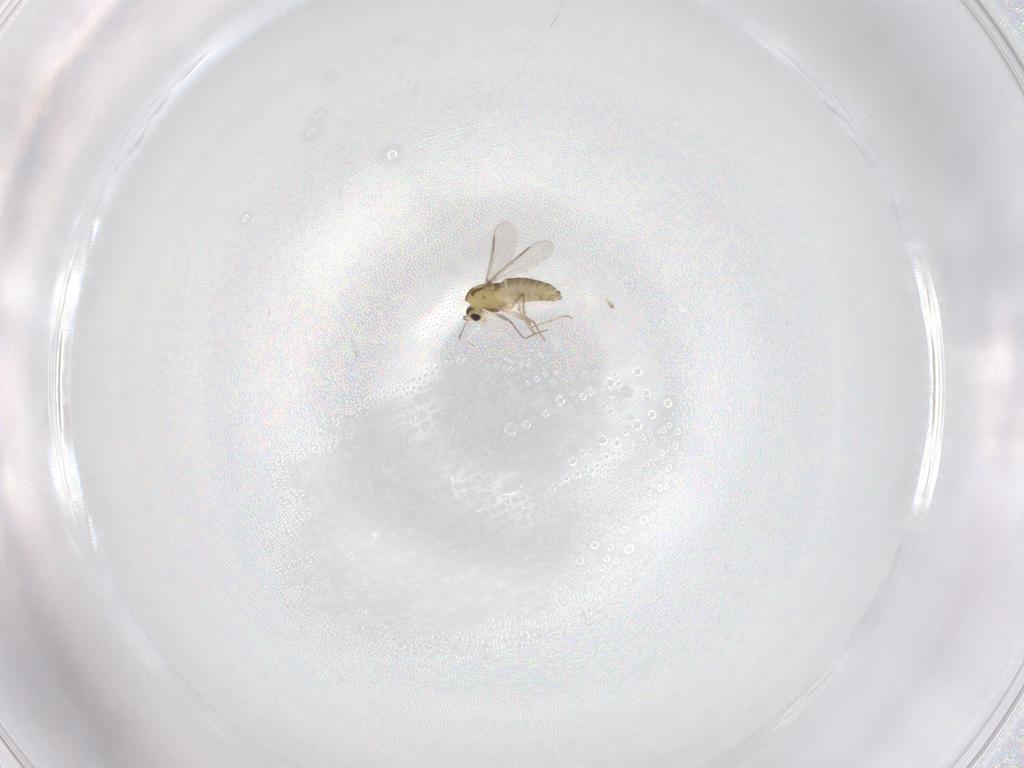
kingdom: Animalia
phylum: Arthropoda
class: Insecta
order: Diptera
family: Chironomidae
